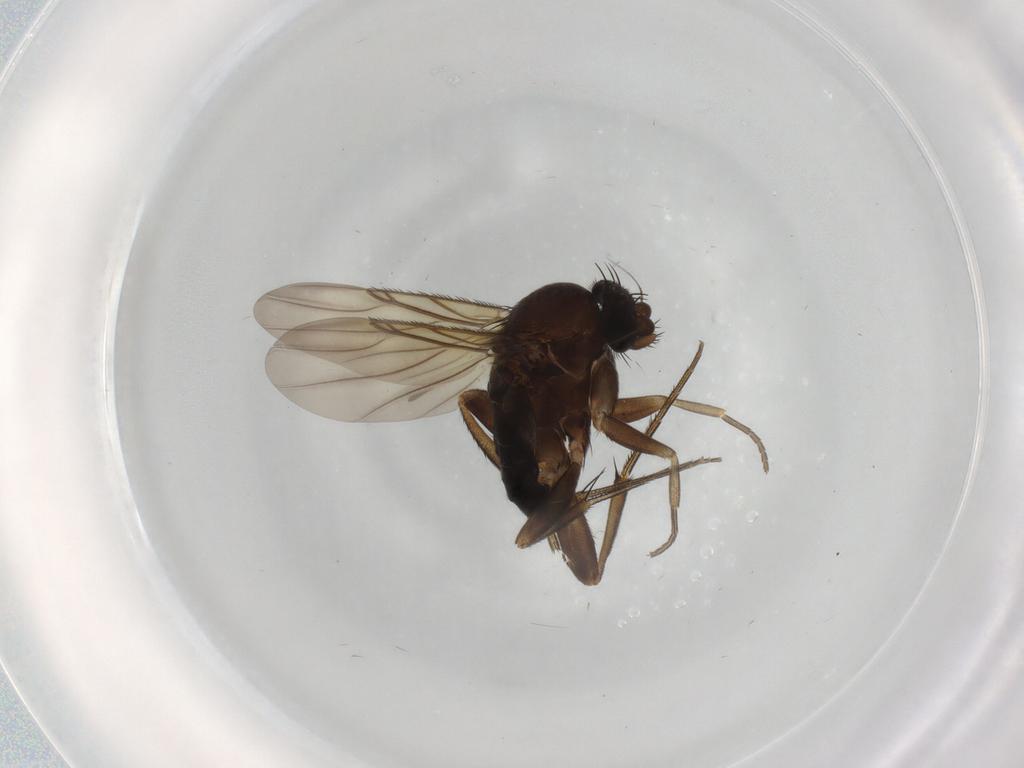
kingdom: Animalia
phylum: Arthropoda
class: Insecta
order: Diptera
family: Phoridae
